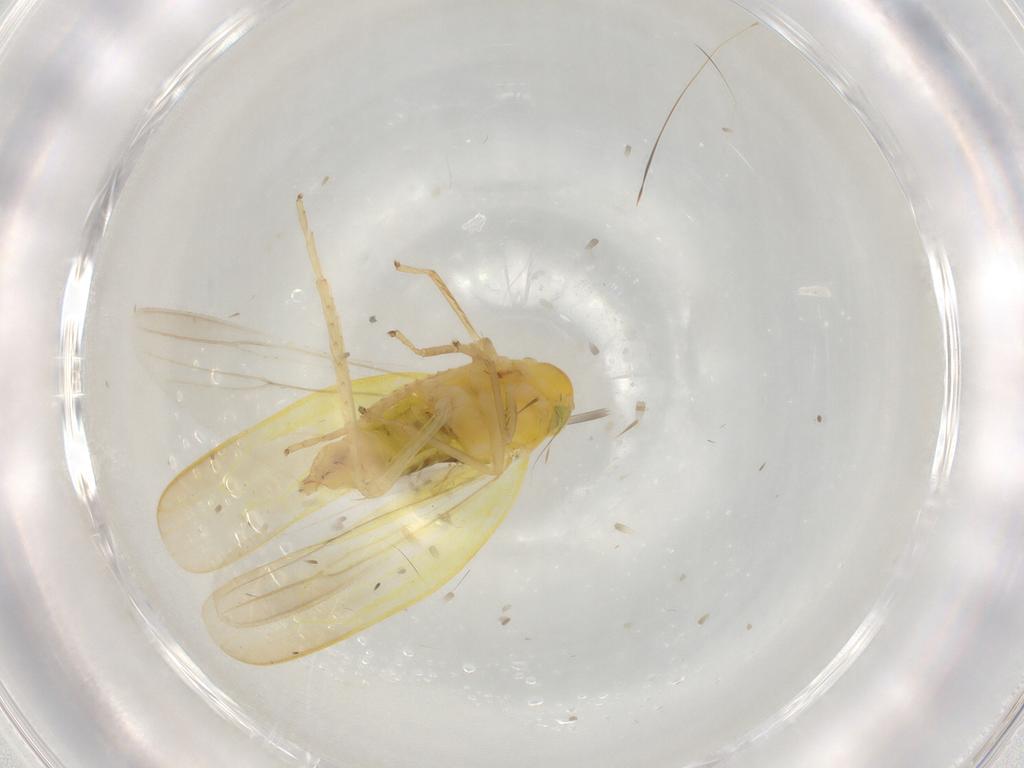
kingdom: Animalia
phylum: Arthropoda
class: Insecta
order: Hemiptera
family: Cicadellidae
